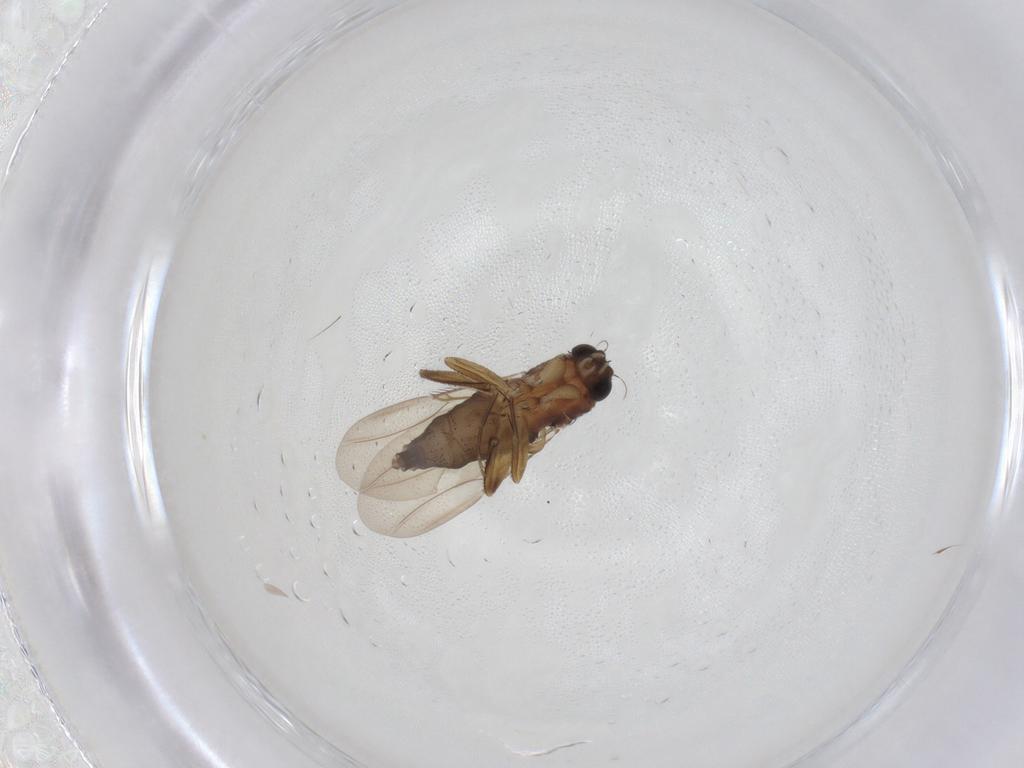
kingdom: Animalia
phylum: Arthropoda
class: Insecta
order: Diptera
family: Phoridae
